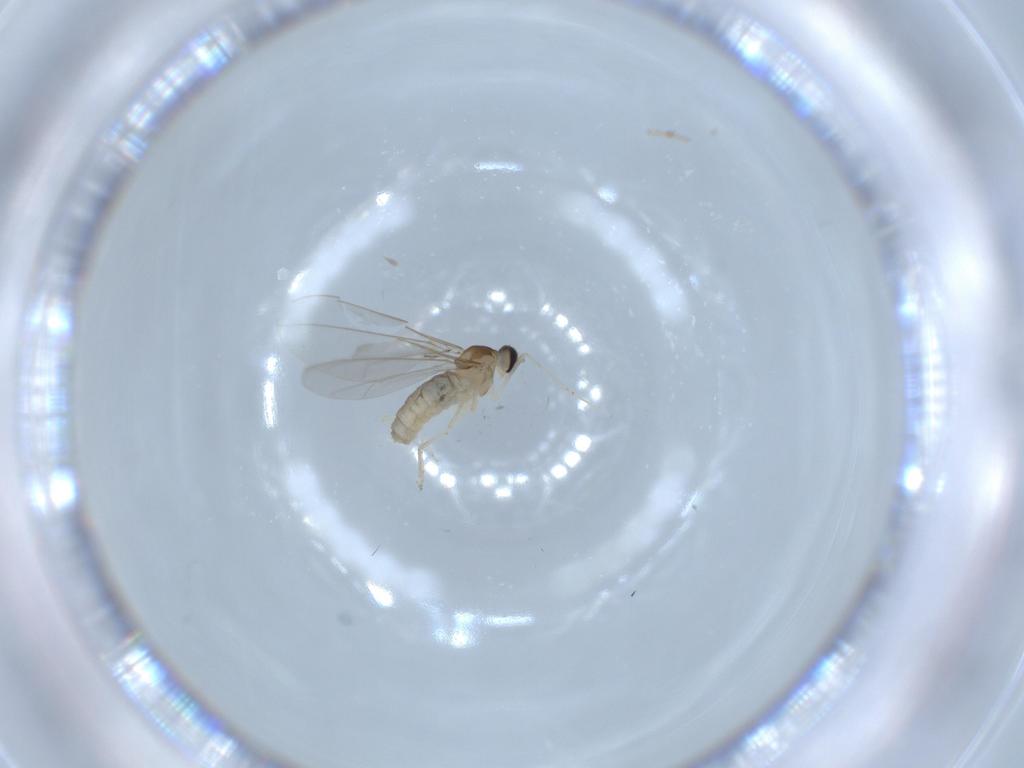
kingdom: Animalia
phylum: Arthropoda
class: Insecta
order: Diptera
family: Cecidomyiidae
